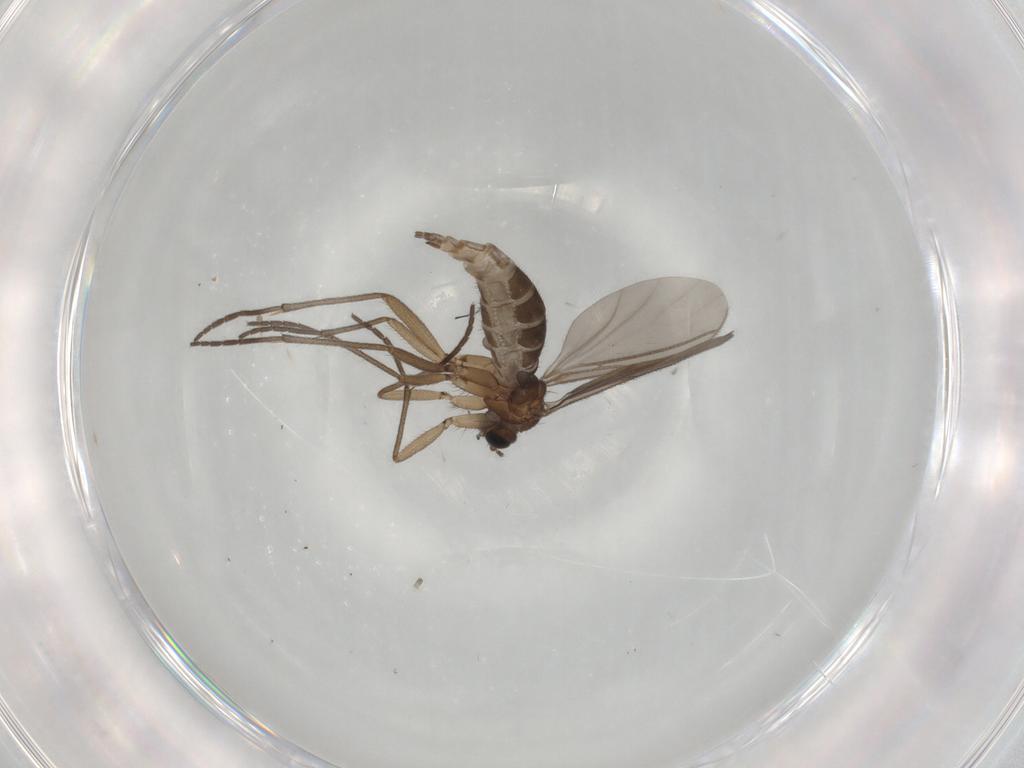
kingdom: Animalia
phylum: Arthropoda
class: Insecta
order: Diptera
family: Sciaridae
